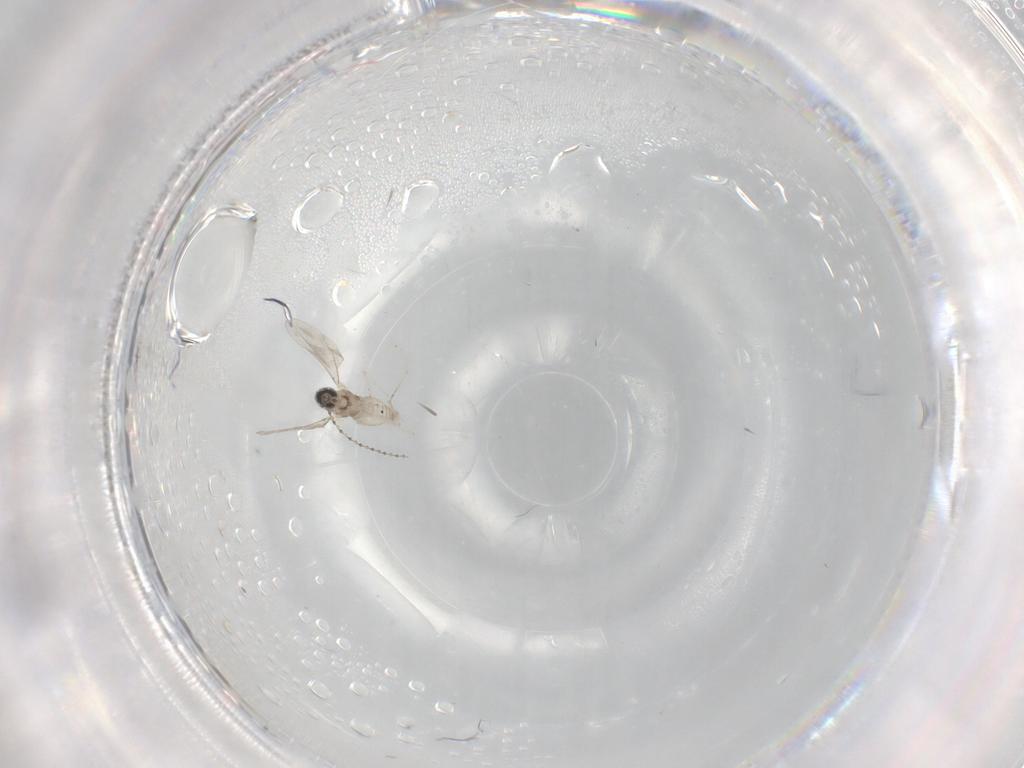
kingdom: Animalia
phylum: Arthropoda
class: Insecta
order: Diptera
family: Cecidomyiidae
